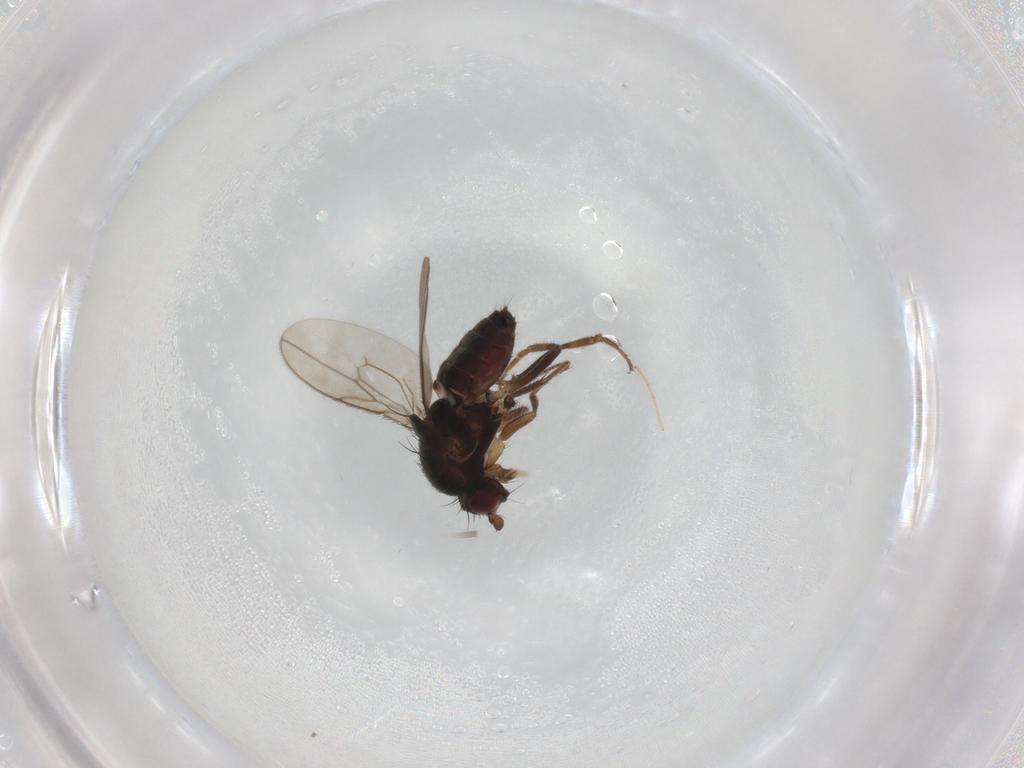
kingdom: Animalia
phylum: Arthropoda
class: Insecta
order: Diptera
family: Sphaeroceridae
